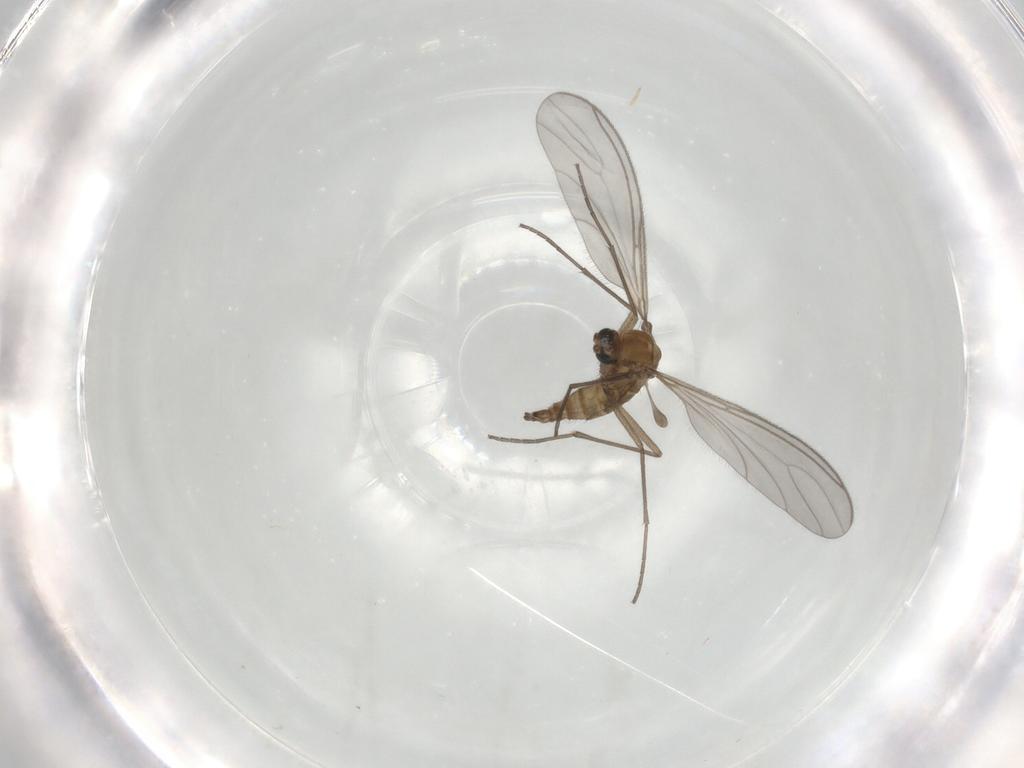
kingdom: Animalia
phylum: Arthropoda
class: Insecta
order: Diptera
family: Sciaridae
